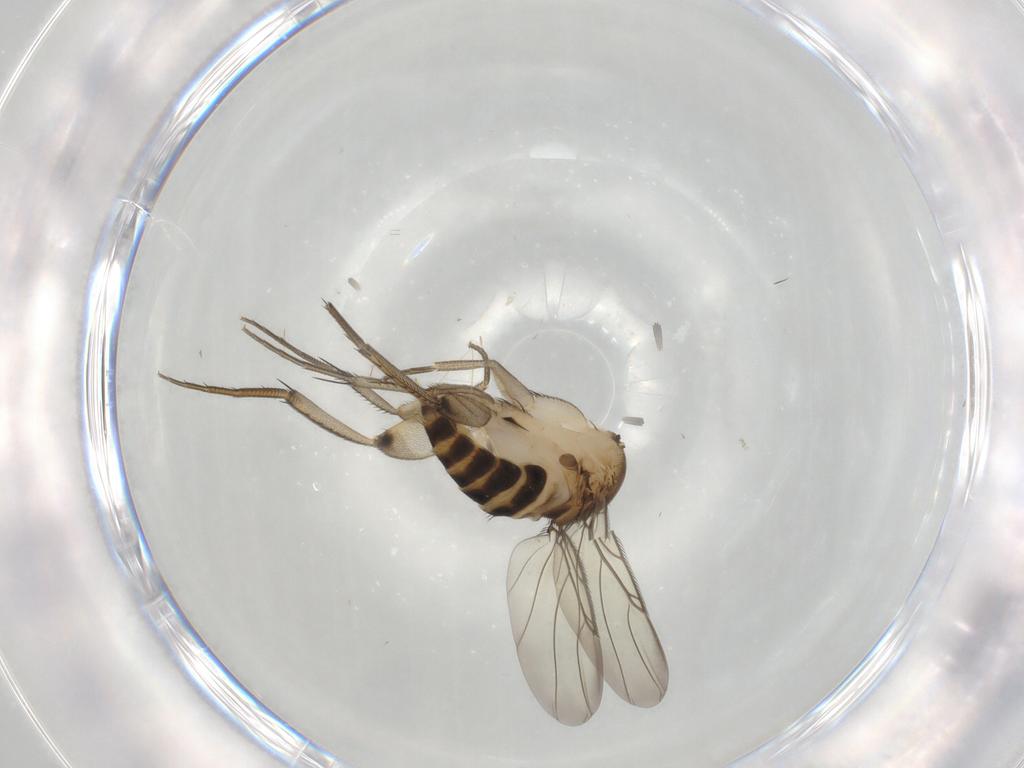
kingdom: Animalia
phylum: Arthropoda
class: Insecta
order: Diptera
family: Phoridae
